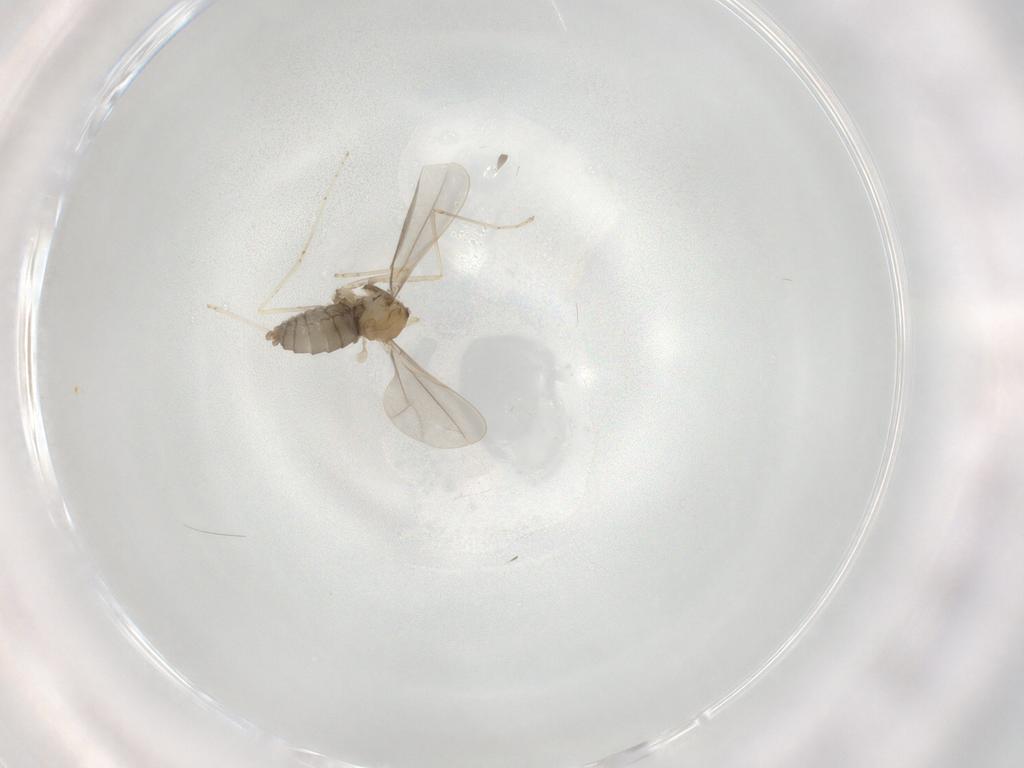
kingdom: Animalia
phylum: Arthropoda
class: Insecta
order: Diptera
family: Cecidomyiidae
